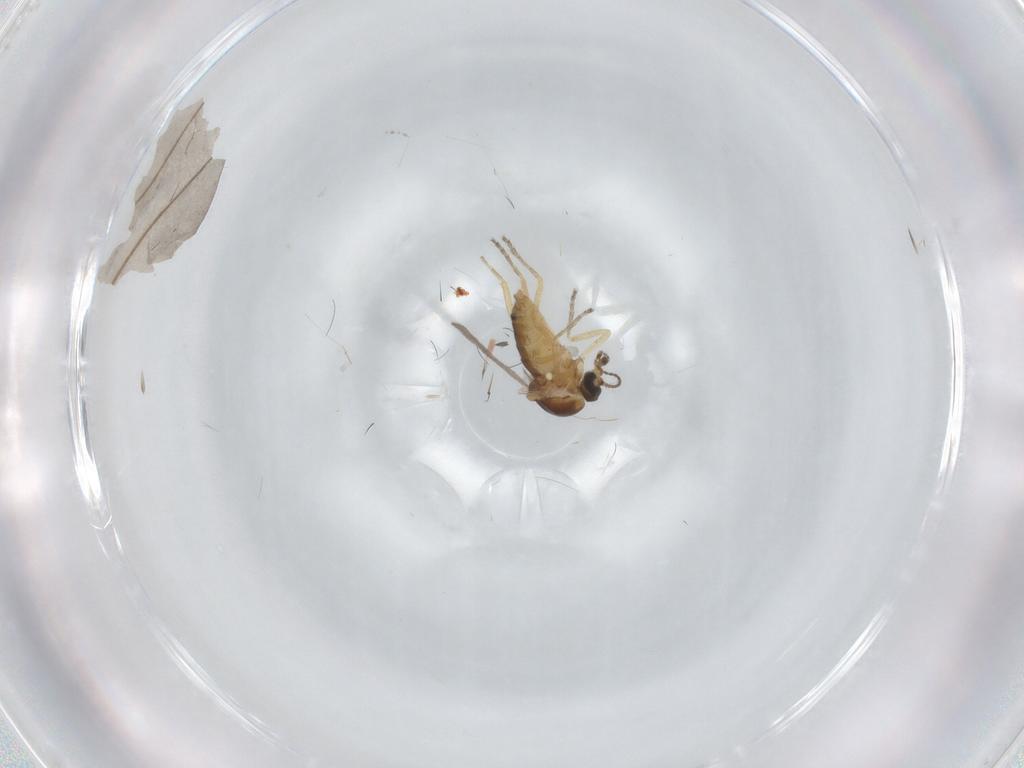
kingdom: Animalia
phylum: Arthropoda
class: Insecta
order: Diptera
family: Ceratopogonidae
